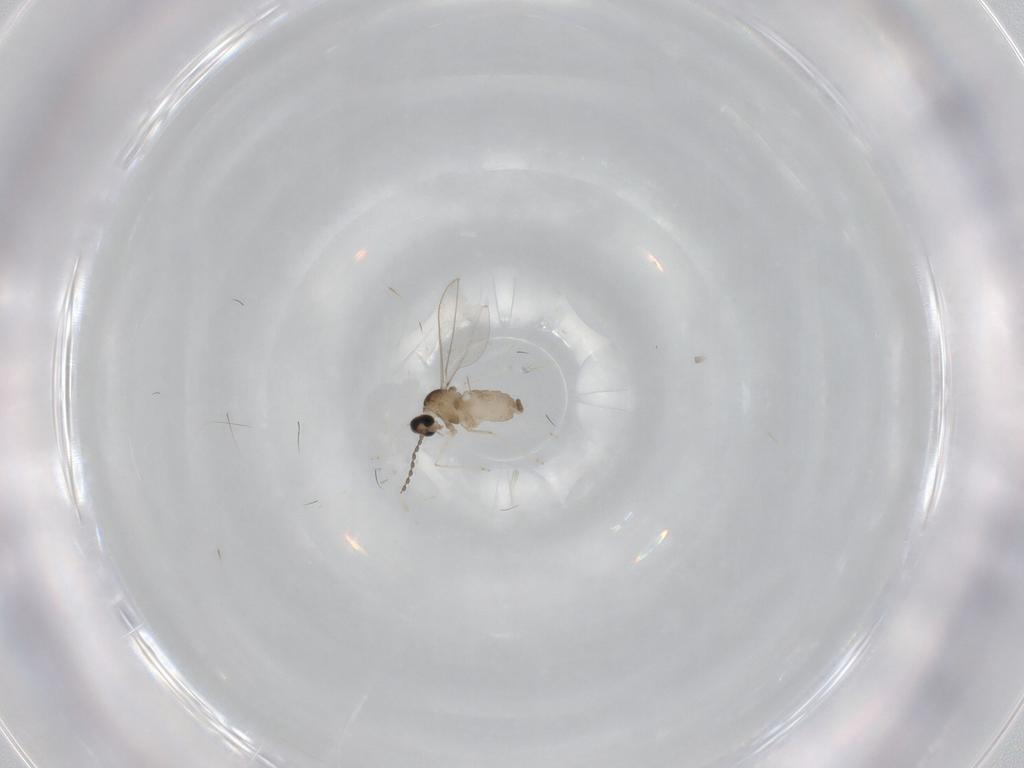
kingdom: Animalia
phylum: Arthropoda
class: Insecta
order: Diptera
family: Cecidomyiidae
